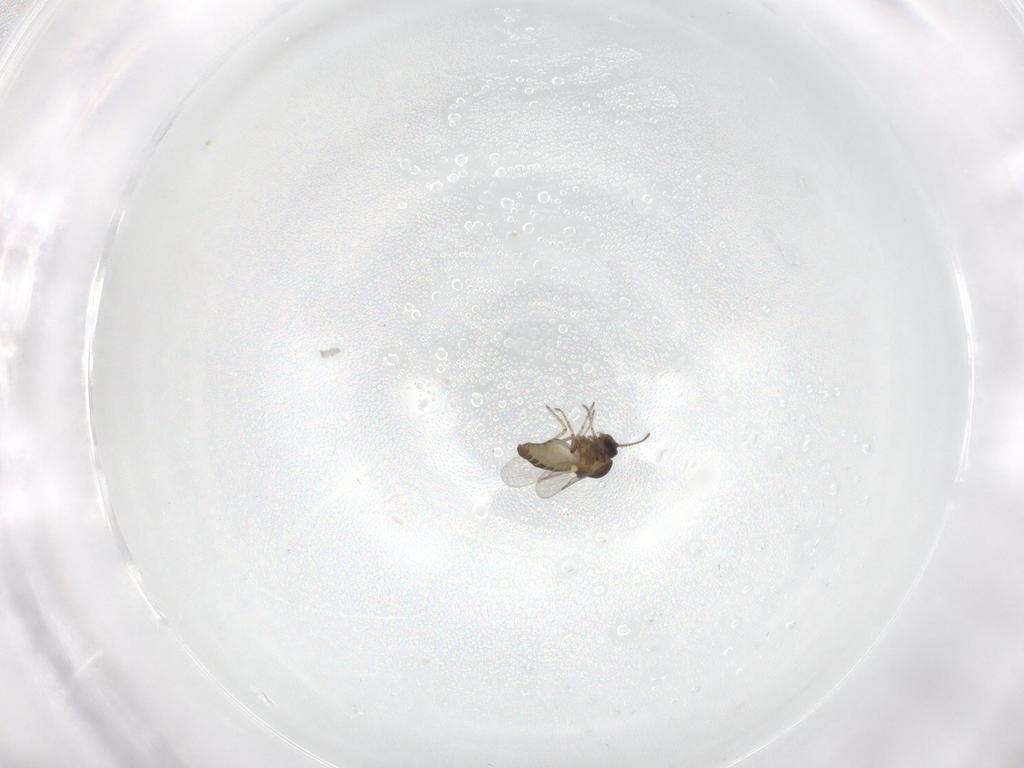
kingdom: Animalia
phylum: Arthropoda
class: Insecta
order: Diptera
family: Ceratopogonidae
